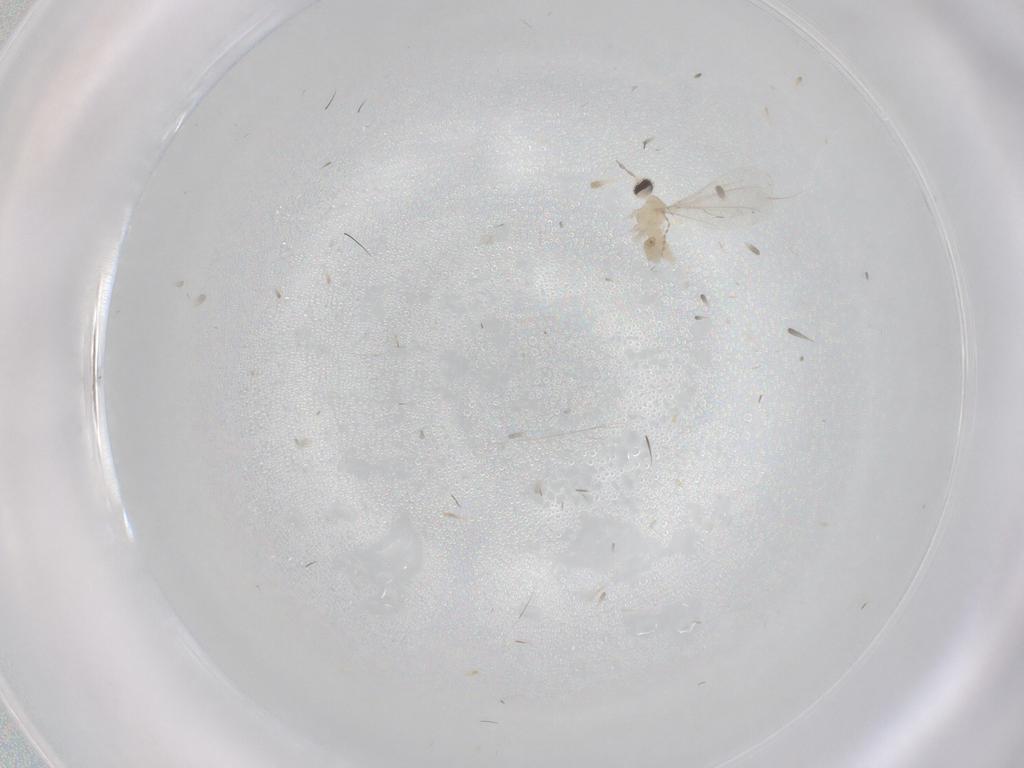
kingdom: Animalia
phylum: Arthropoda
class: Insecta
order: Diptera
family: Cecidomyiidae
